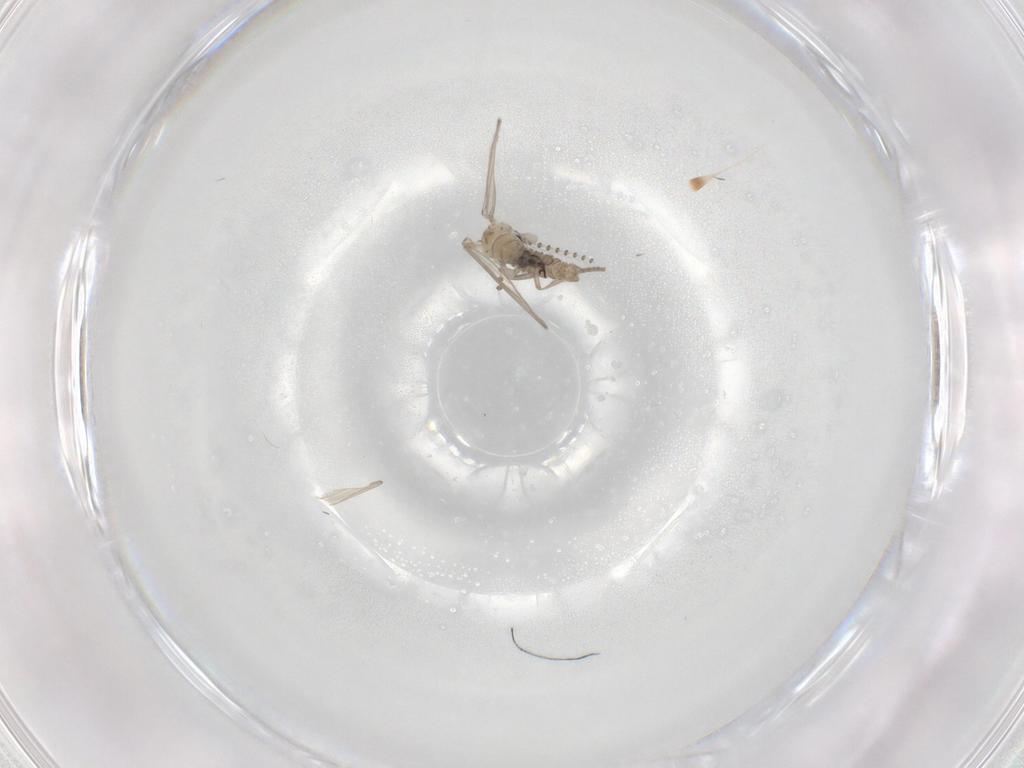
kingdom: Animalia
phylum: Arthropoda
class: Insecta
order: Diptera
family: Psychodidae
